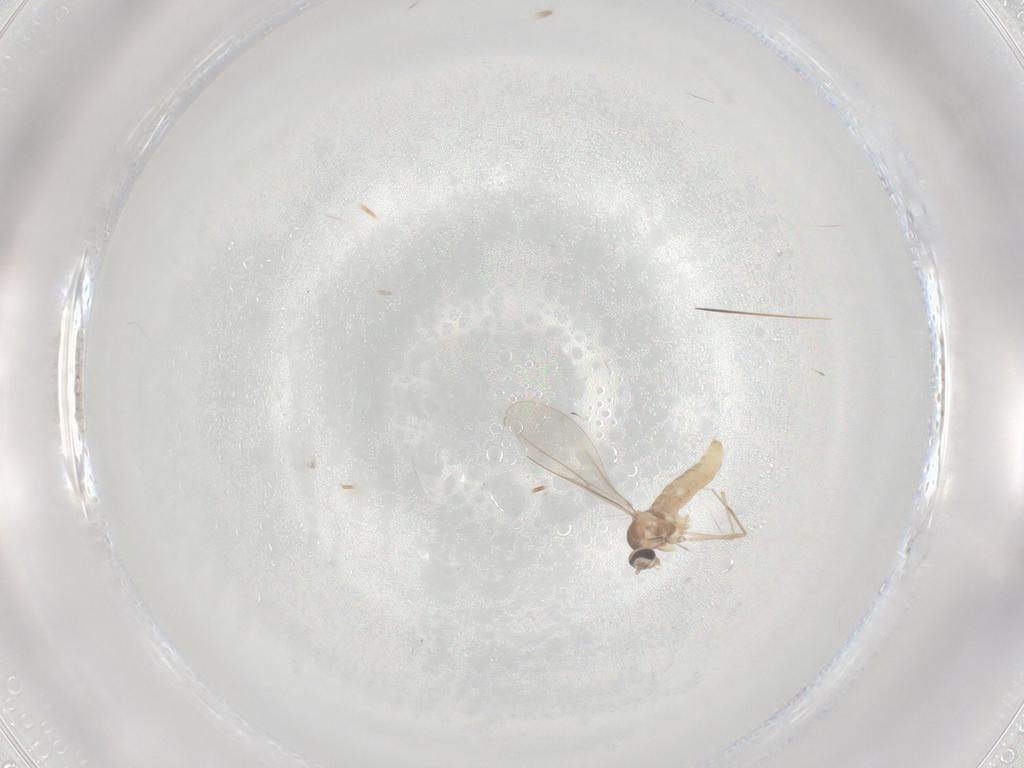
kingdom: Animalia
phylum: Arthropoda
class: Insecta
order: Diptera
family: Cecidomyiidae
